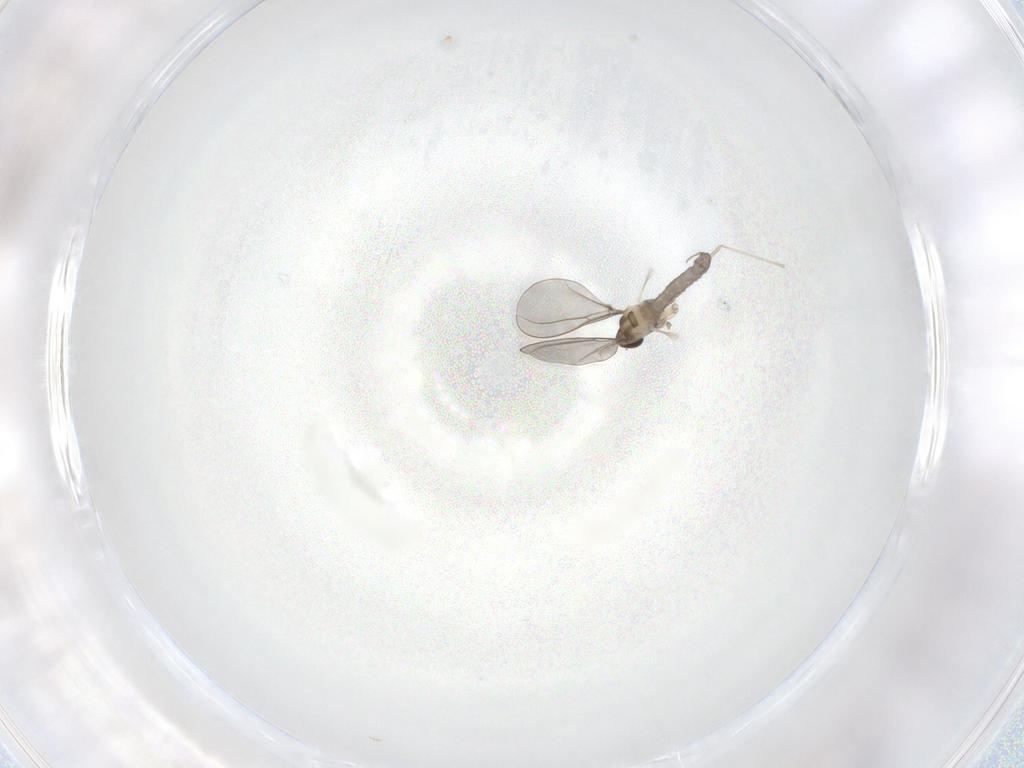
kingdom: Animalia
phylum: Arthropoda
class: Insecta
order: Diptera
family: Cecidomyiidae
